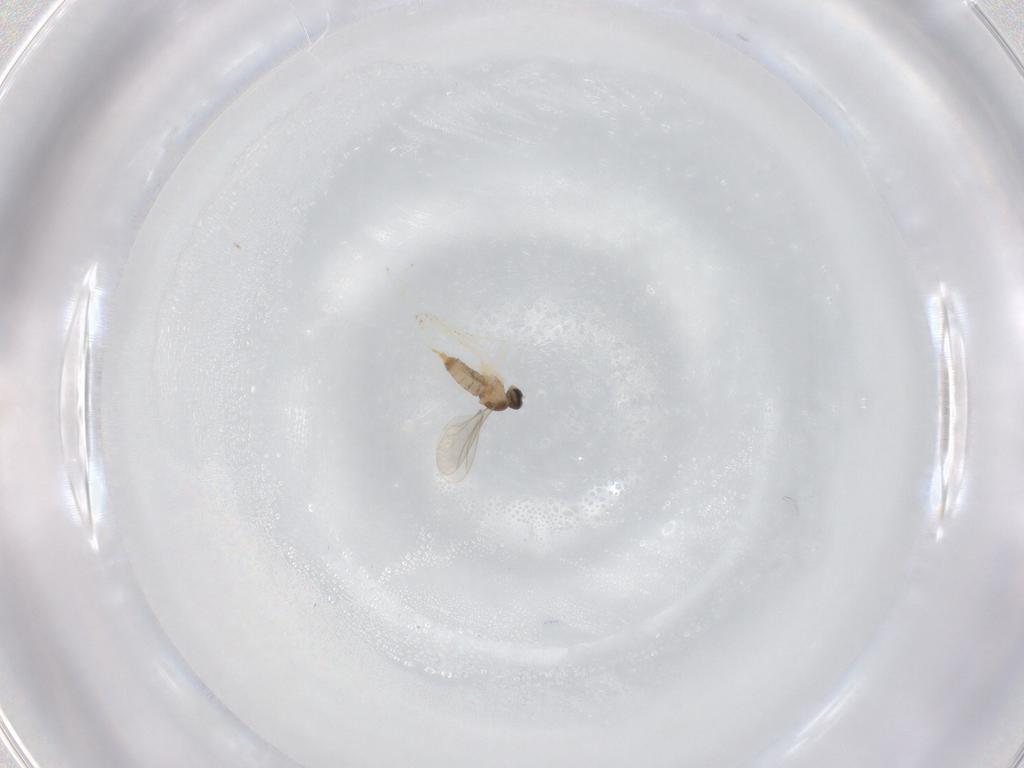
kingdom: Animalia
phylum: Arthropoda
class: Insecta
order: Diptera
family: Cecidomyiidae
